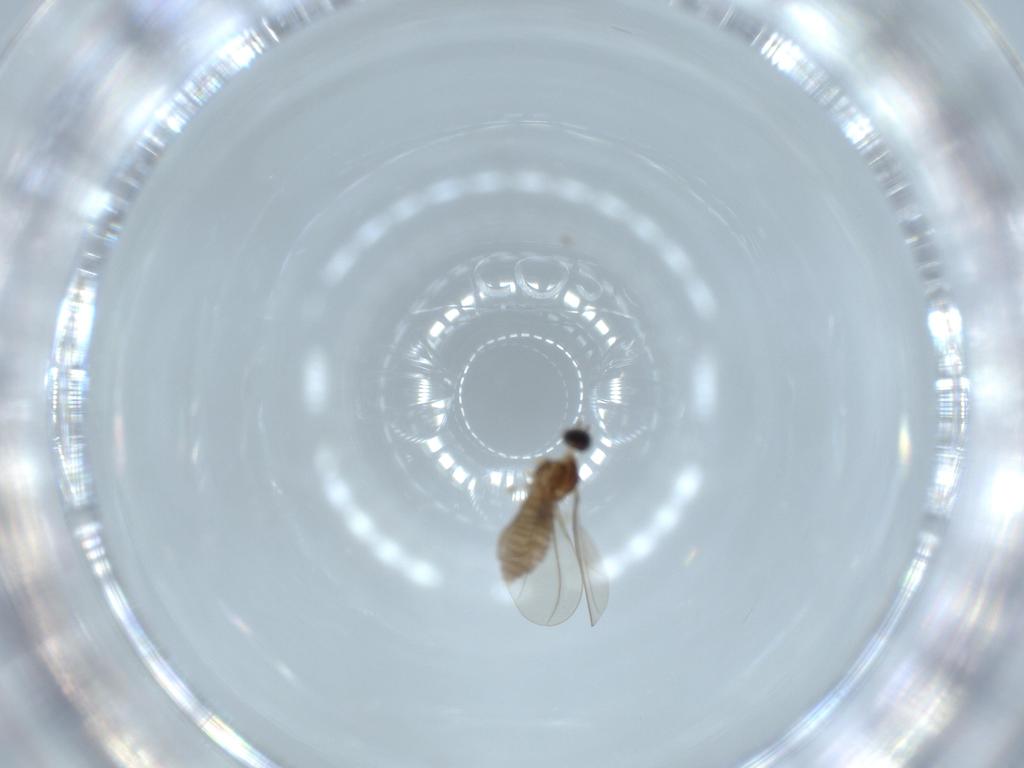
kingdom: Animalia
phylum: Arthropoda
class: Insecta
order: Diptera
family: Cecidomyiidae
